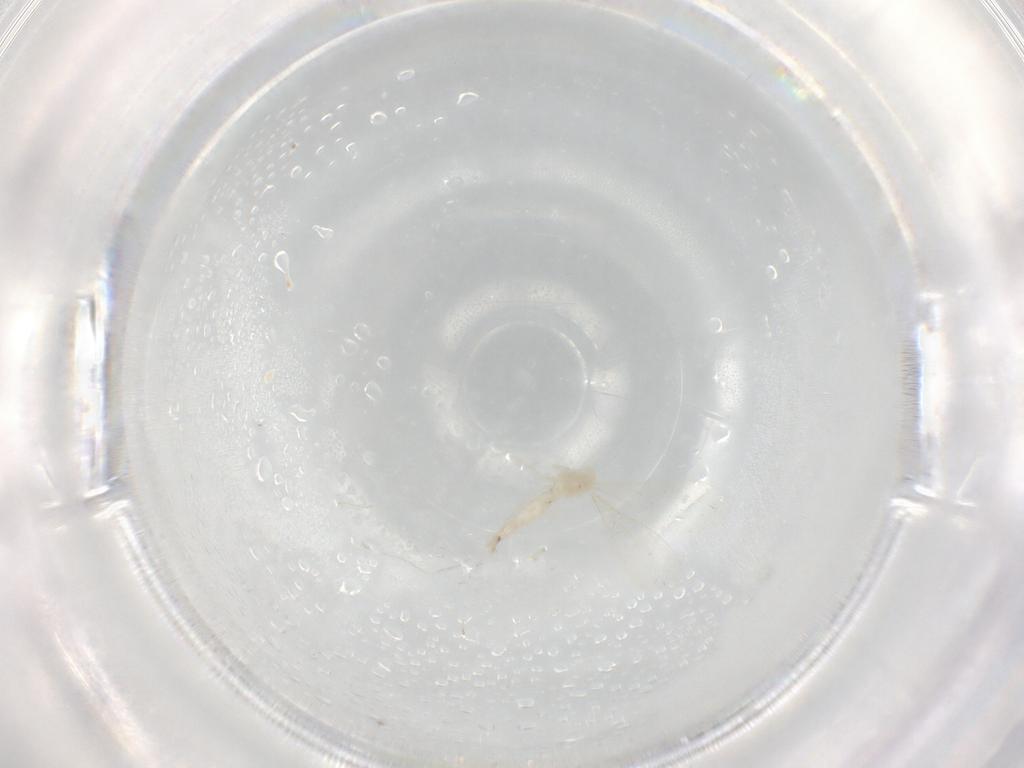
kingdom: Animalia
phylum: Arthropoda
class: Insecta
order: Diptera
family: Cecidomyiidae
